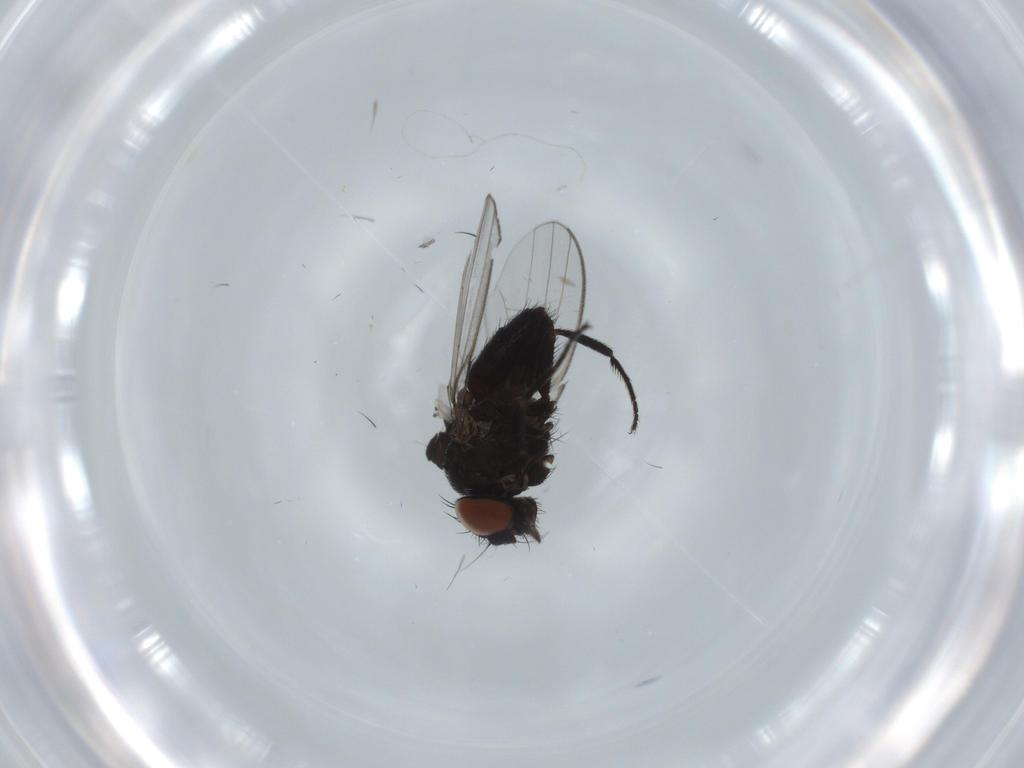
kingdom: Animalia
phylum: Arthropoda
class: Insecta
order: Diptera
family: Milichiidae
